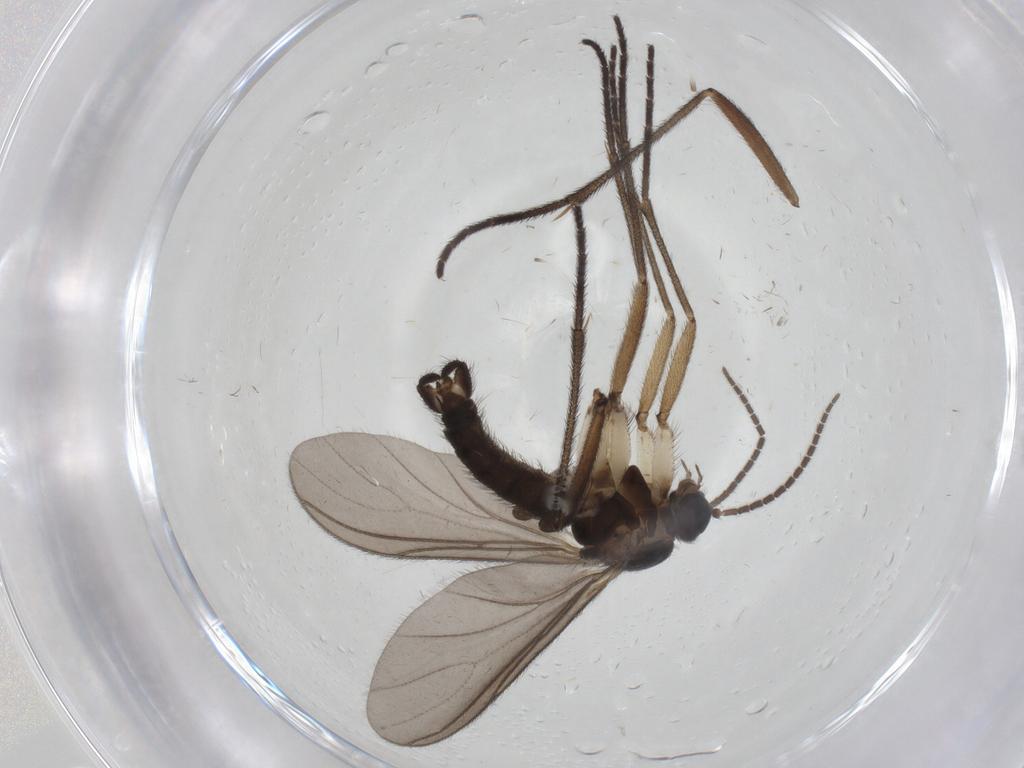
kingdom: Animalia
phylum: Arthropoda
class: Insecta
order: Diptera
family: Sciaridae
